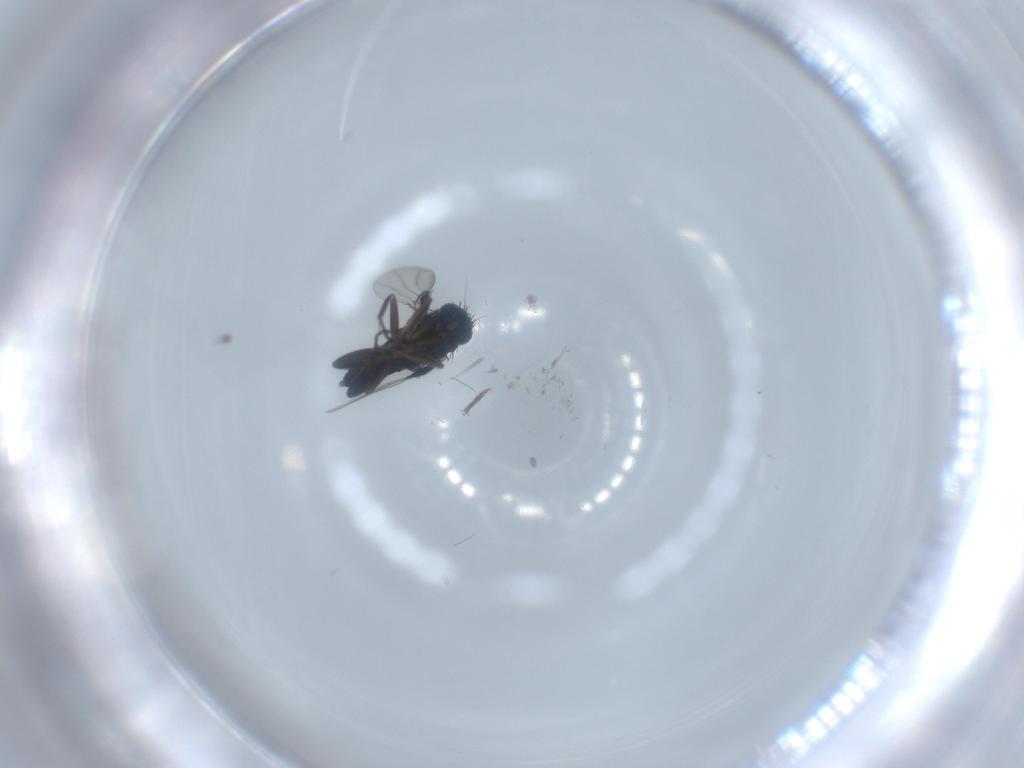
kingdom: Animalia
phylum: Arthropoda
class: Insecta
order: Diptera
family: Phoridae
